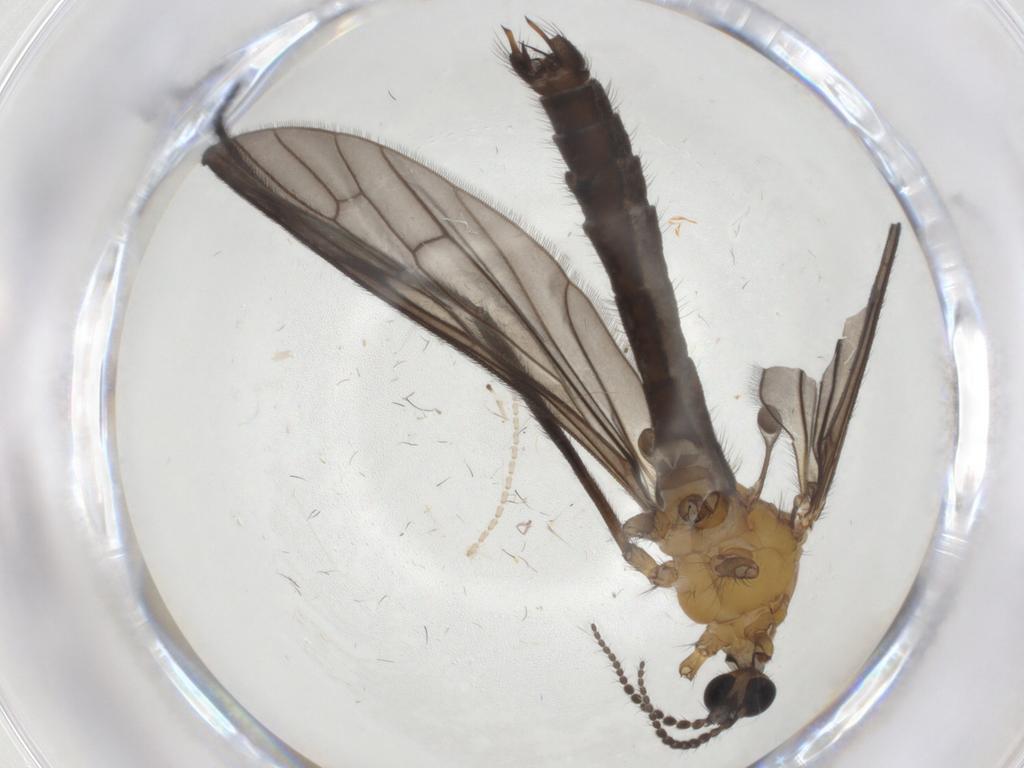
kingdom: Animalia
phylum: Arthropoda
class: Insecta
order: Diptera
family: Limoniidae
